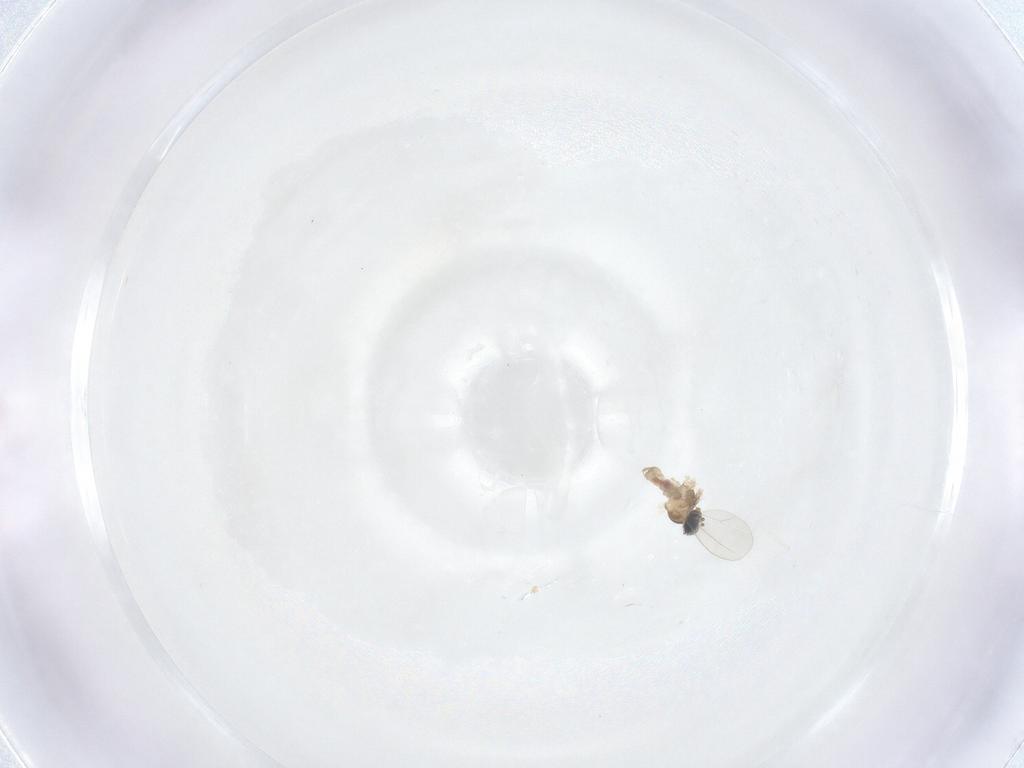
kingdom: Animalia
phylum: Arthropoda
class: Insecta
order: Diptera
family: Cecidomyiidae
